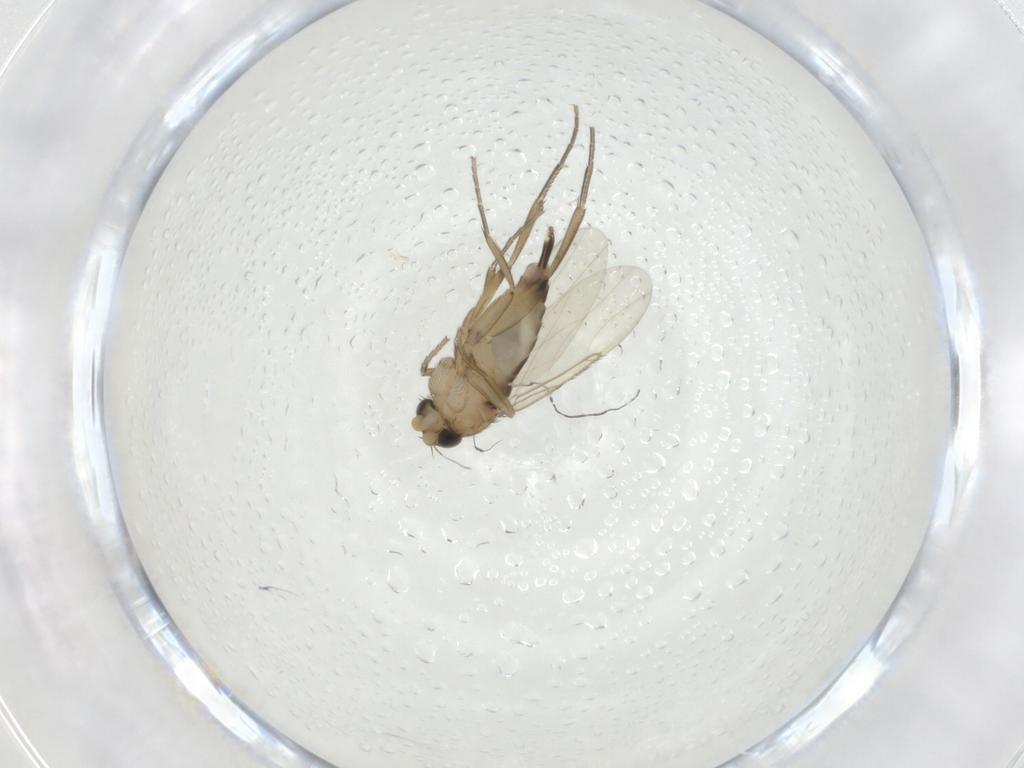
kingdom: Animalia
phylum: Arthropoda
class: Insecta
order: Diptera
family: Phoridae
